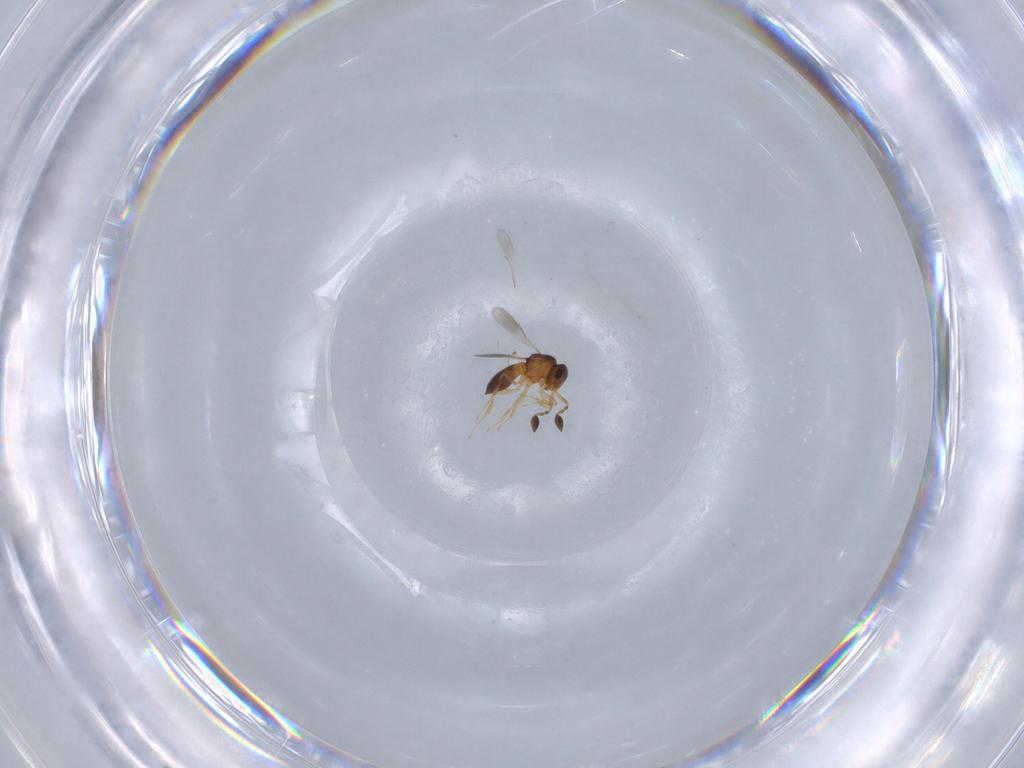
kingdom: Animalia
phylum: Arthropoda
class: Insecta
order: Hymenoptera
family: Scelionidae
